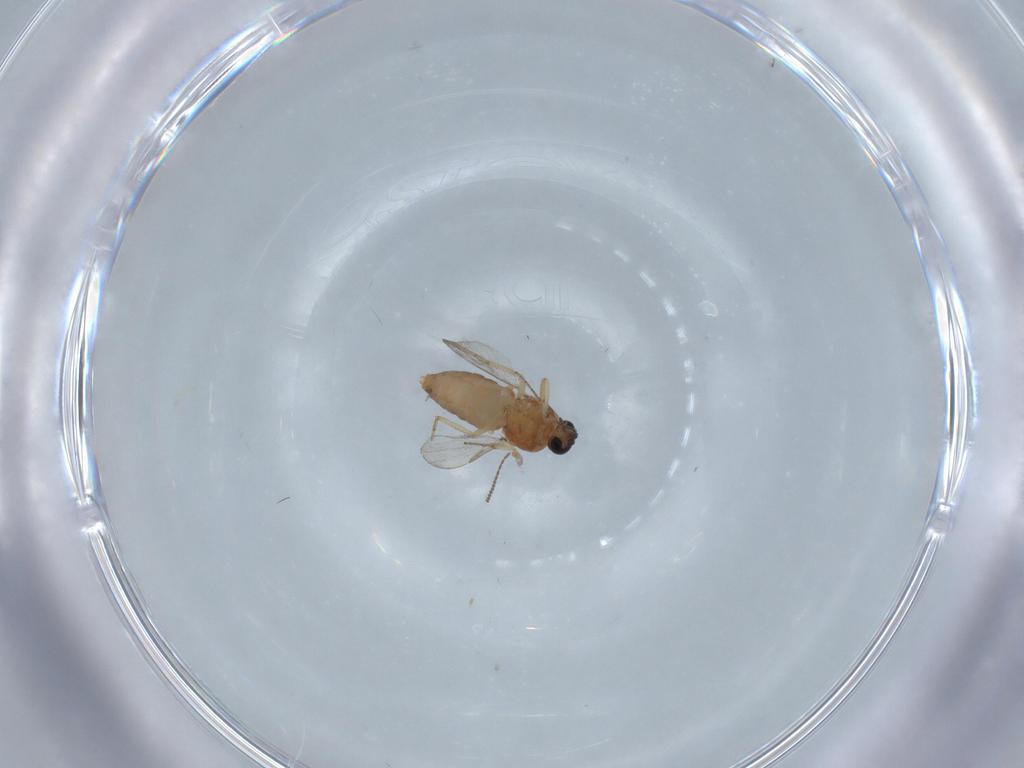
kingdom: Animalia
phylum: Arthropoda
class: Insecta
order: Diptera
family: Ceratopogonidae
